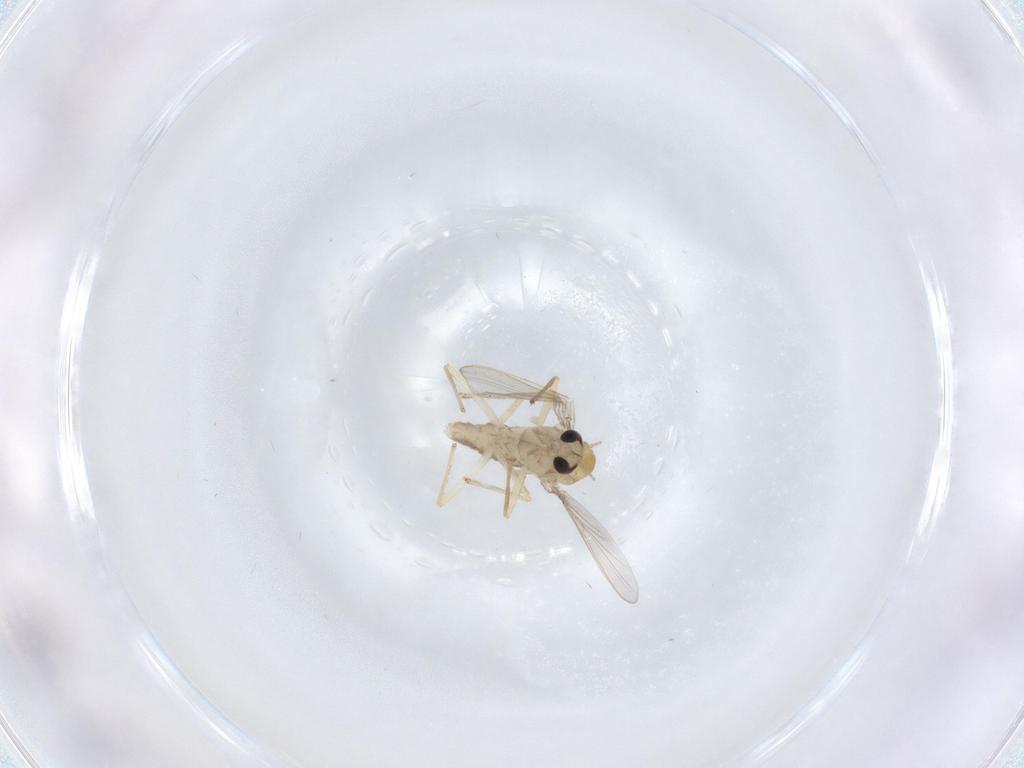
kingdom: Animalia
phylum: Arthropoda
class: Insecta
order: Diptera
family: Chironomidae
